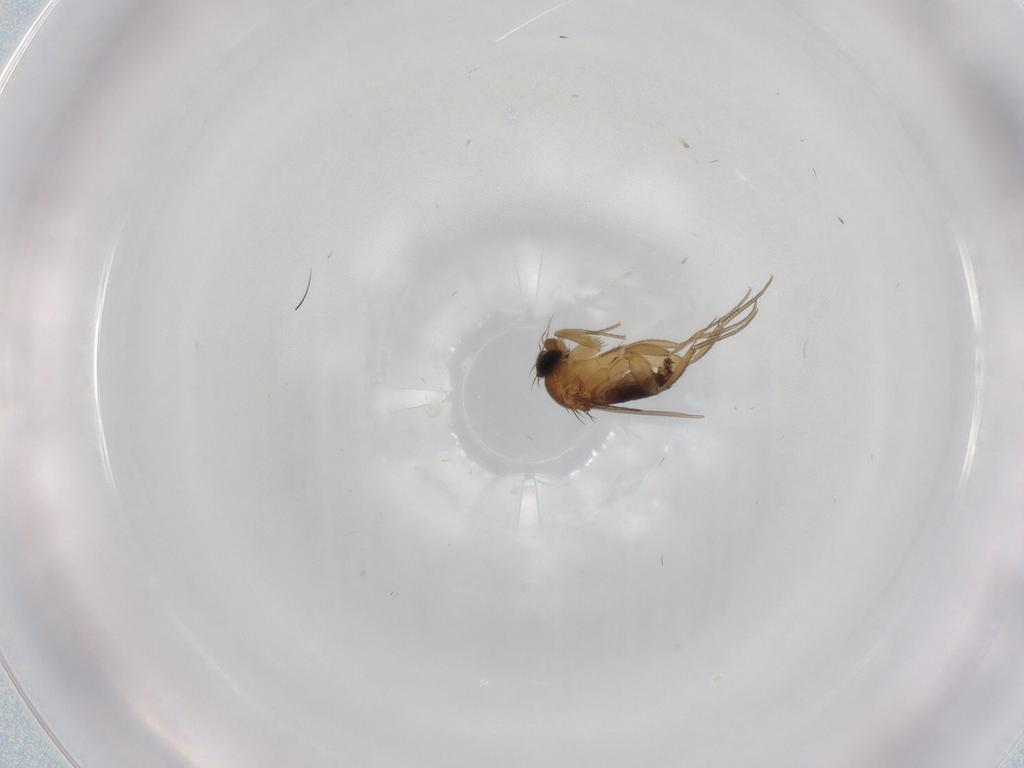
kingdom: Animalia
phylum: Arthropoda
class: Insecta
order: Diptera
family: Phoridae
